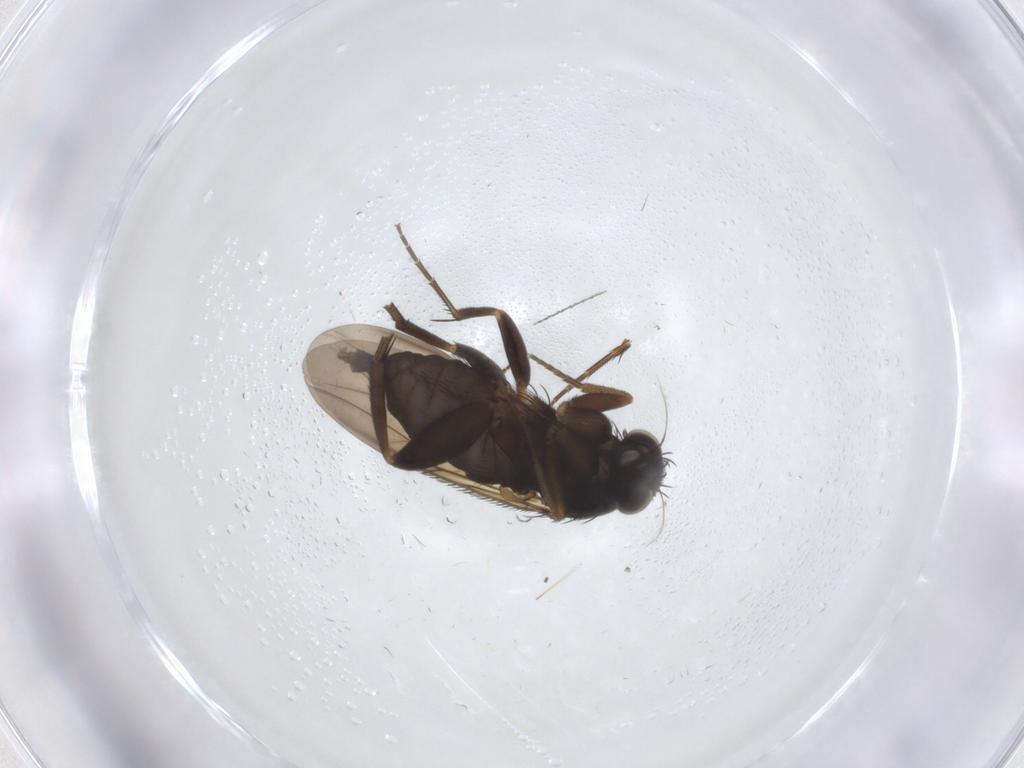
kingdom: Animalia
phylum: Arthropoda
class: Insecta
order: Diptera
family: Phoridae
